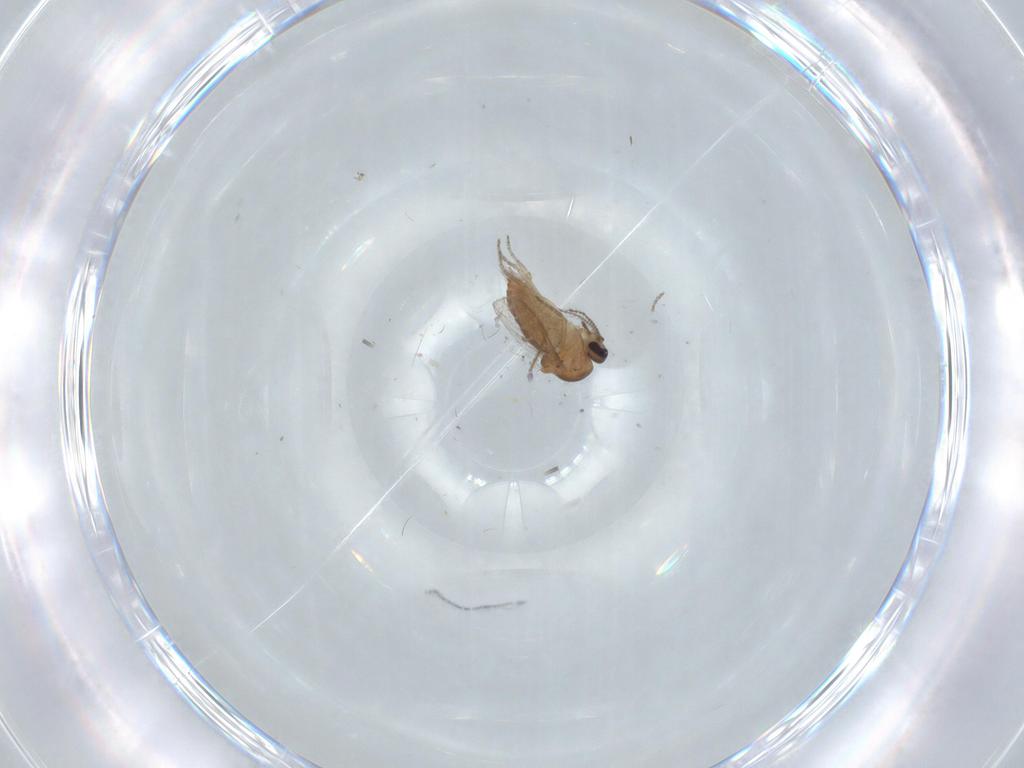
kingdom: Animalia
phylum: Arthropoda
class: Insecta
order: Diptera
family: Ceratopogonidae
